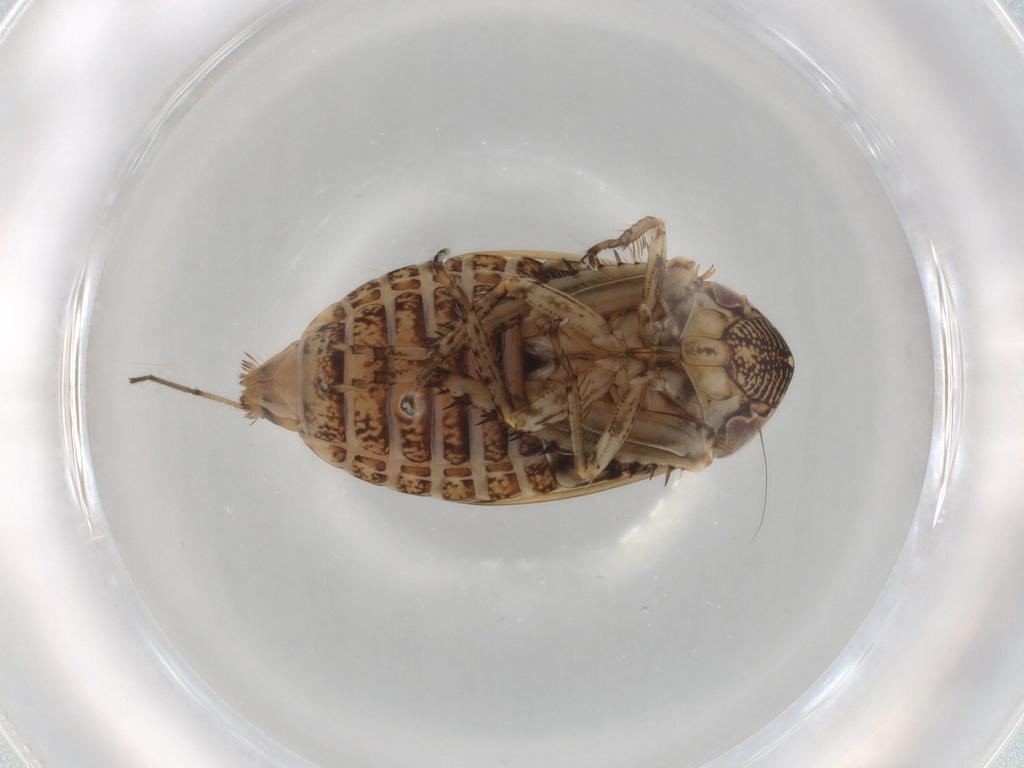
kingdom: Animalia
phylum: Arthropoda
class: Insecta
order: Hemiptera
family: Cicadellidae
